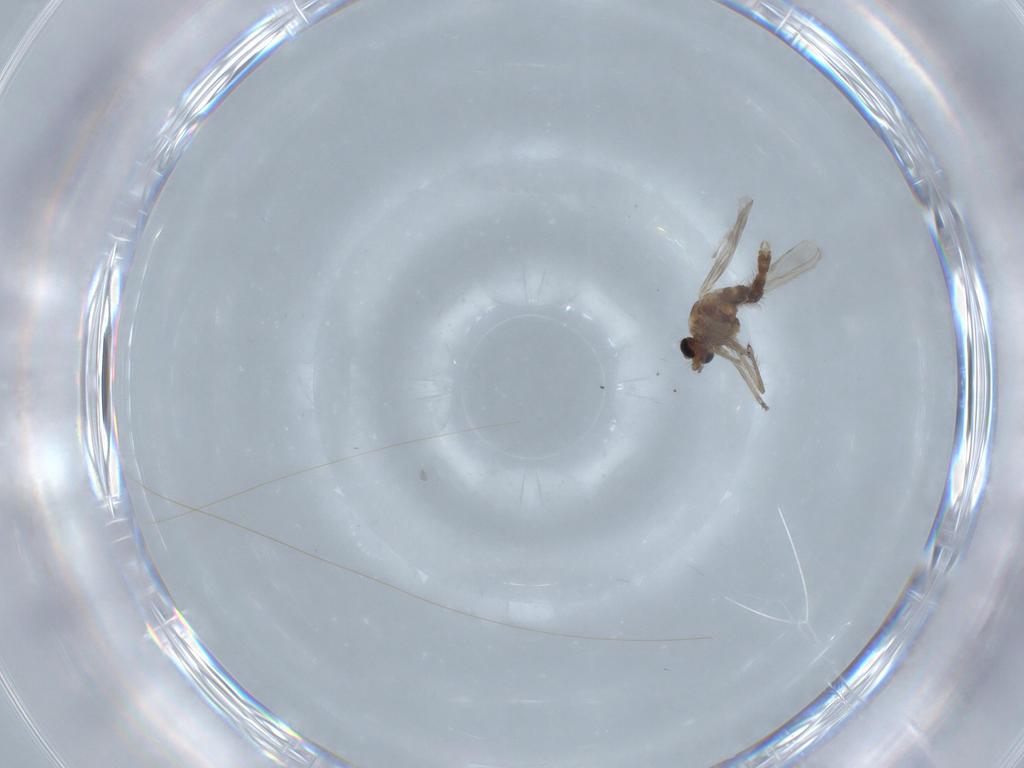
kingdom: Animalia
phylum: Arthropoda
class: Insecta
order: Diptera
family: Chironomidae
